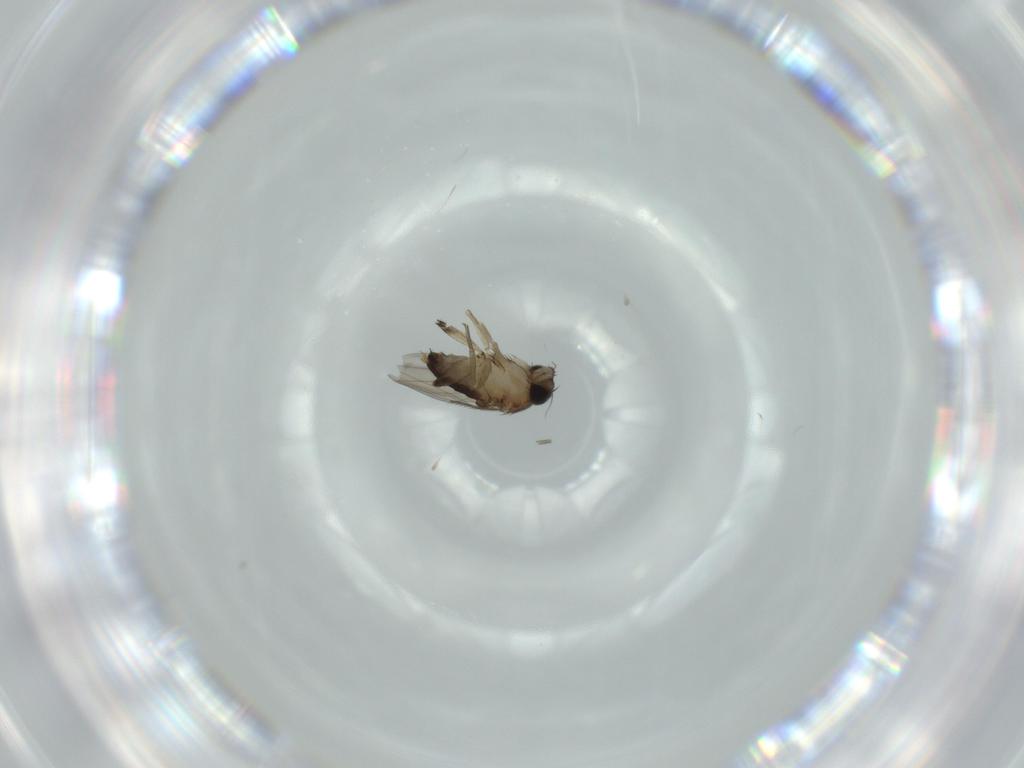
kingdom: Animalia
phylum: Arthropoda
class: Insecta
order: Diptera
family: Phoridae
